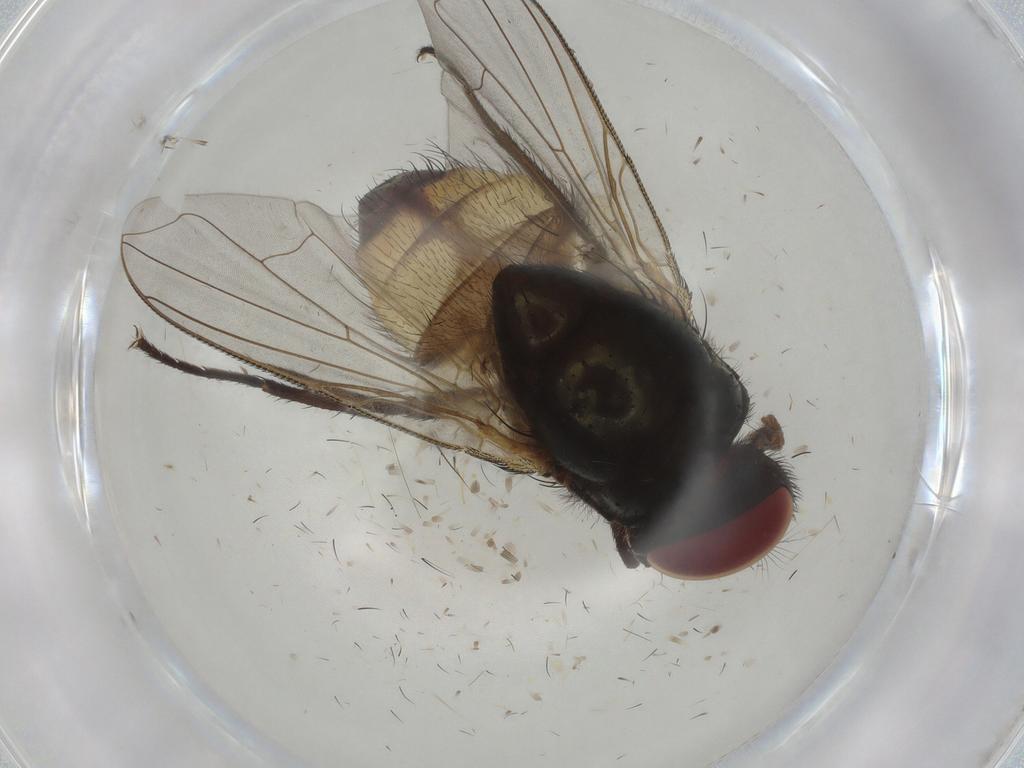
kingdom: Animalia
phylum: Arthropoda
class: Insecta
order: Diptera
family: Muscidae
